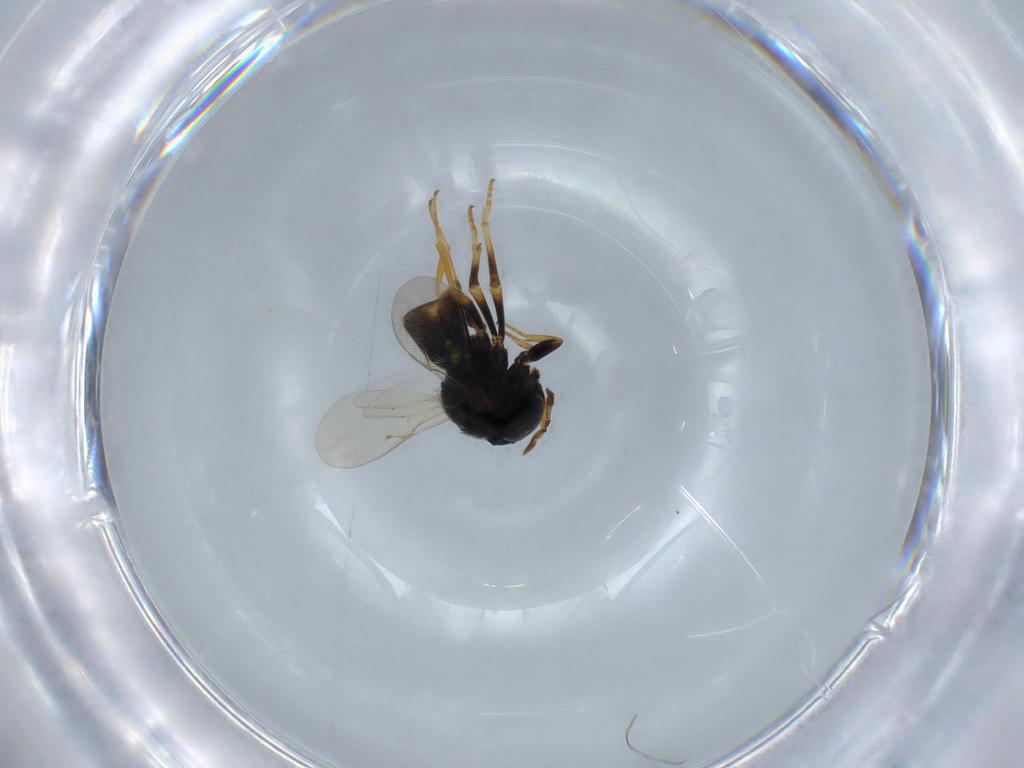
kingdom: Animalia
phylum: Arthropoda
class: Insecta
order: Hymenoptera
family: Encyrtidae
